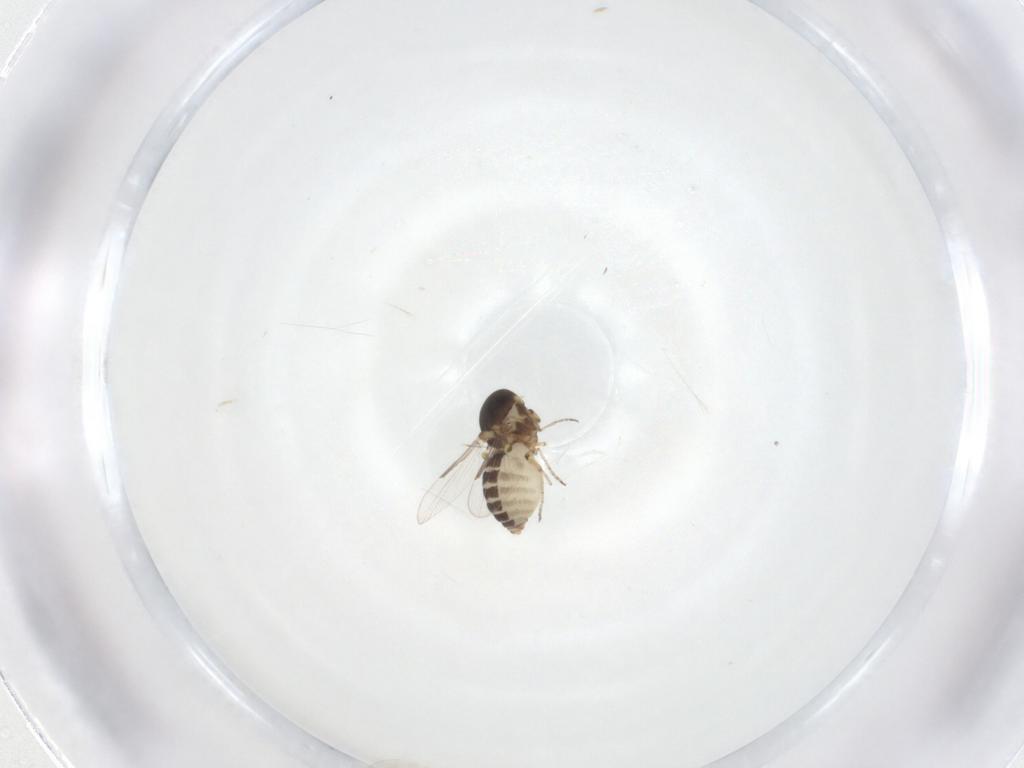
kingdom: Animalia
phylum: Arthropoda
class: Insecta
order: Diptera
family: Ceratopogonidae
